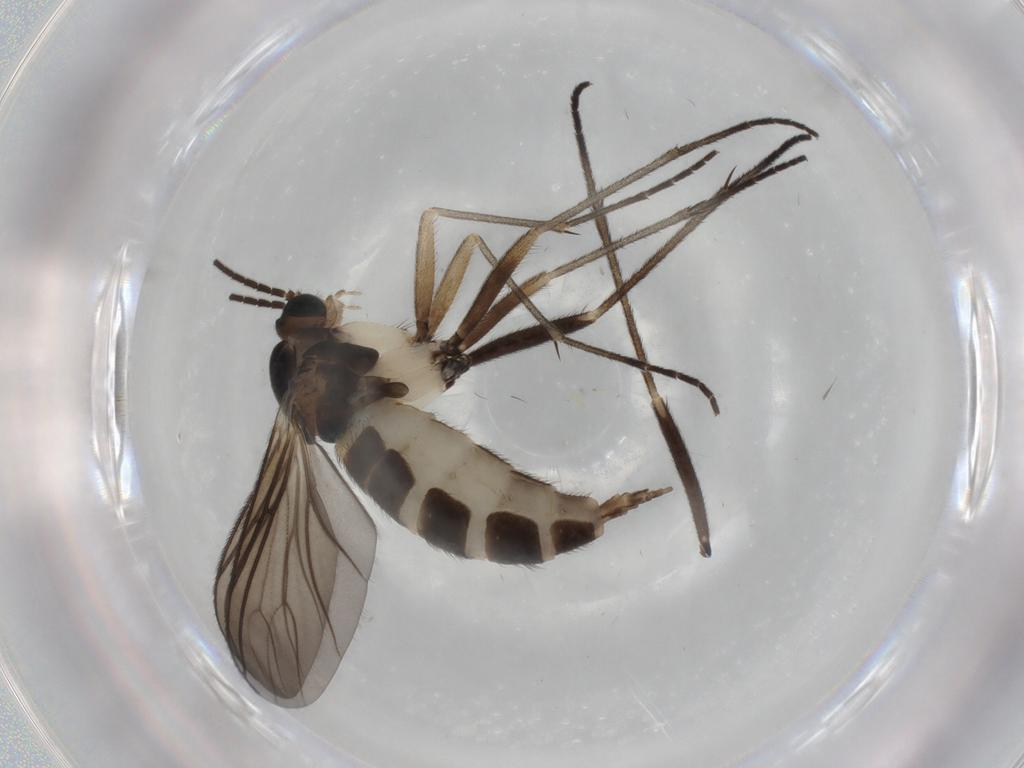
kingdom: Animalia
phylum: Arthropoda
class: Insecta
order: Diptera
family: Sciaridae
